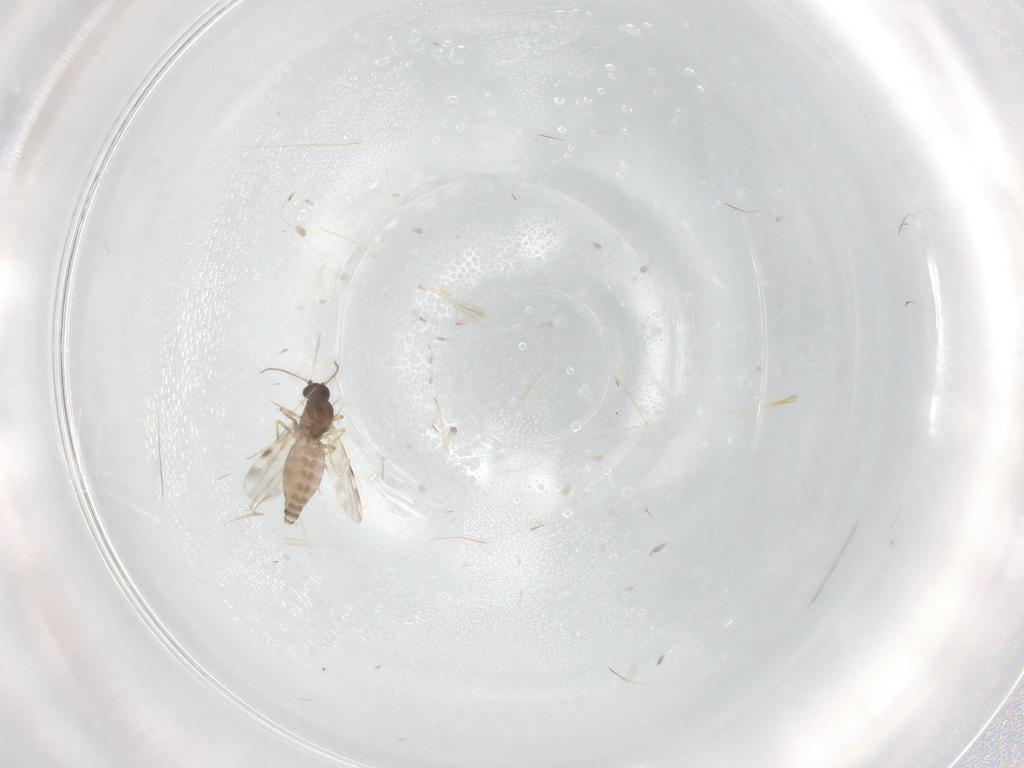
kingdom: Animalia
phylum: Arthropoda
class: Insecta
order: Diptera
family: Ceratopogonidae
